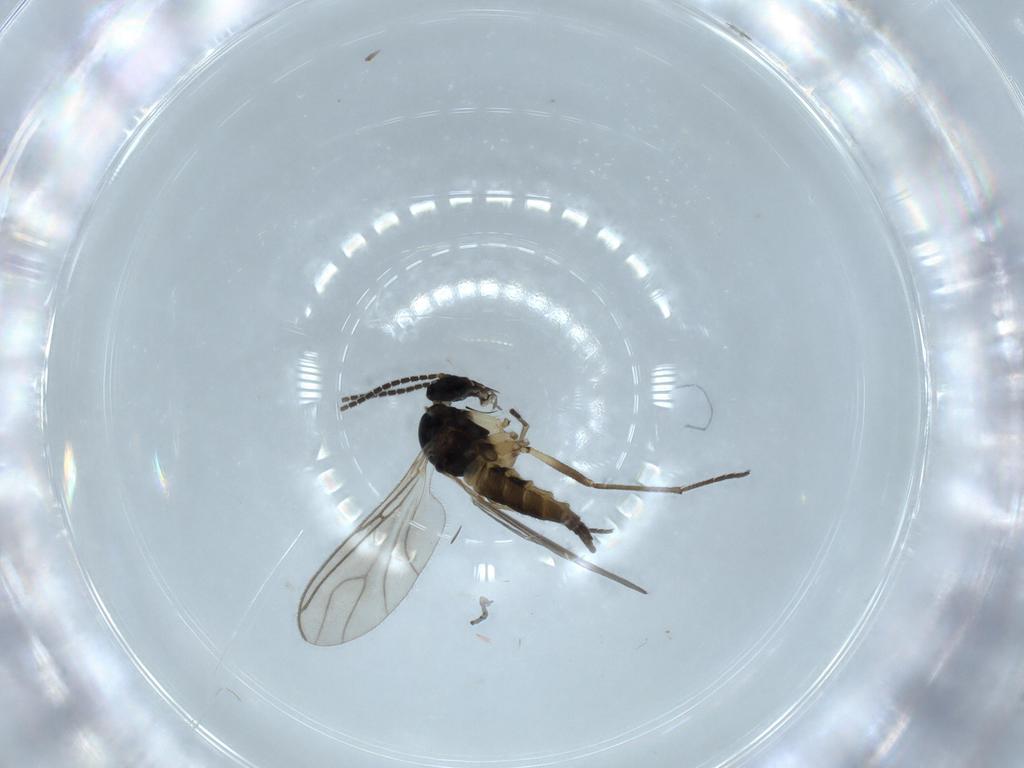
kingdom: Animalia
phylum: Arthropoda
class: Insecta
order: Diptera
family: Sciaridae
